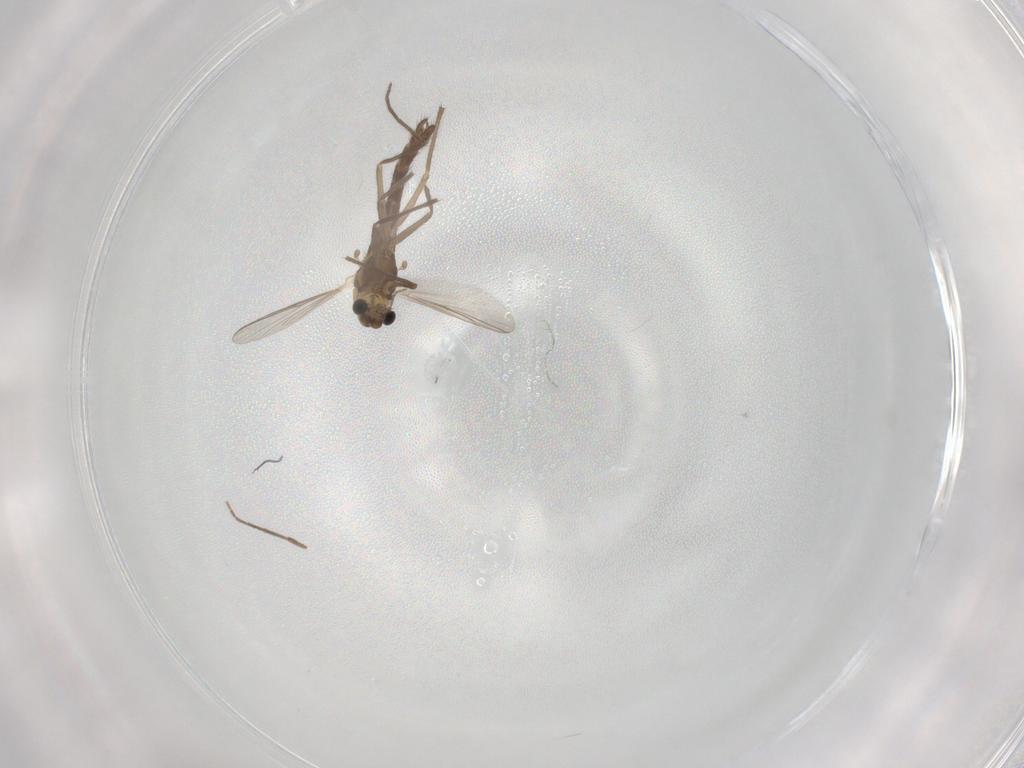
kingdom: Animalia
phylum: Arthropoda
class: Insecta
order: Diptera
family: Chironomidae
